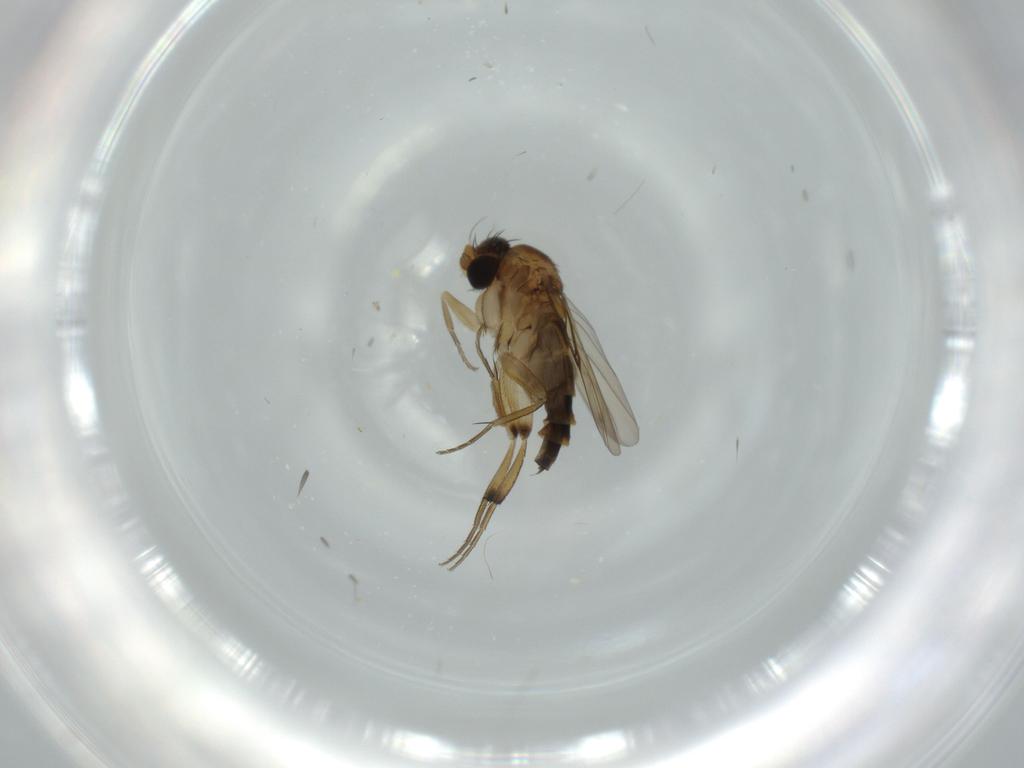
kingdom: Animalia
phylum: Arthropoda
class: Insecta
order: Diptera
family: Phoridae
